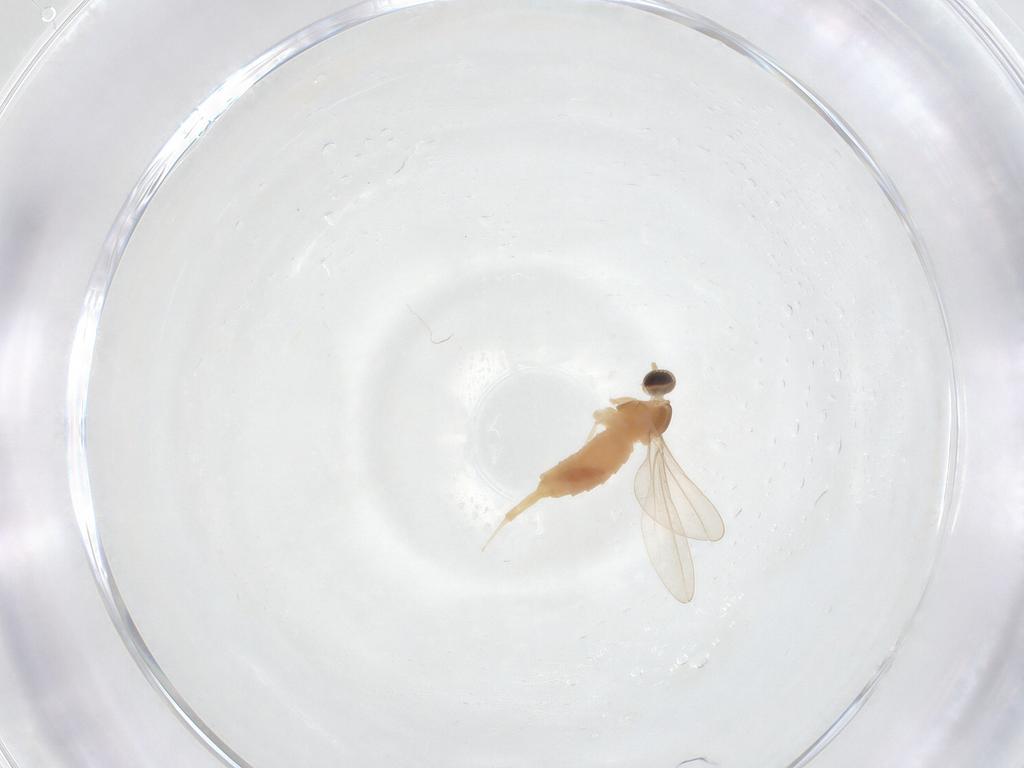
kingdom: Animalia
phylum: Arthropoda
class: Insecta
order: Diptera
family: Cecidomyiidae
